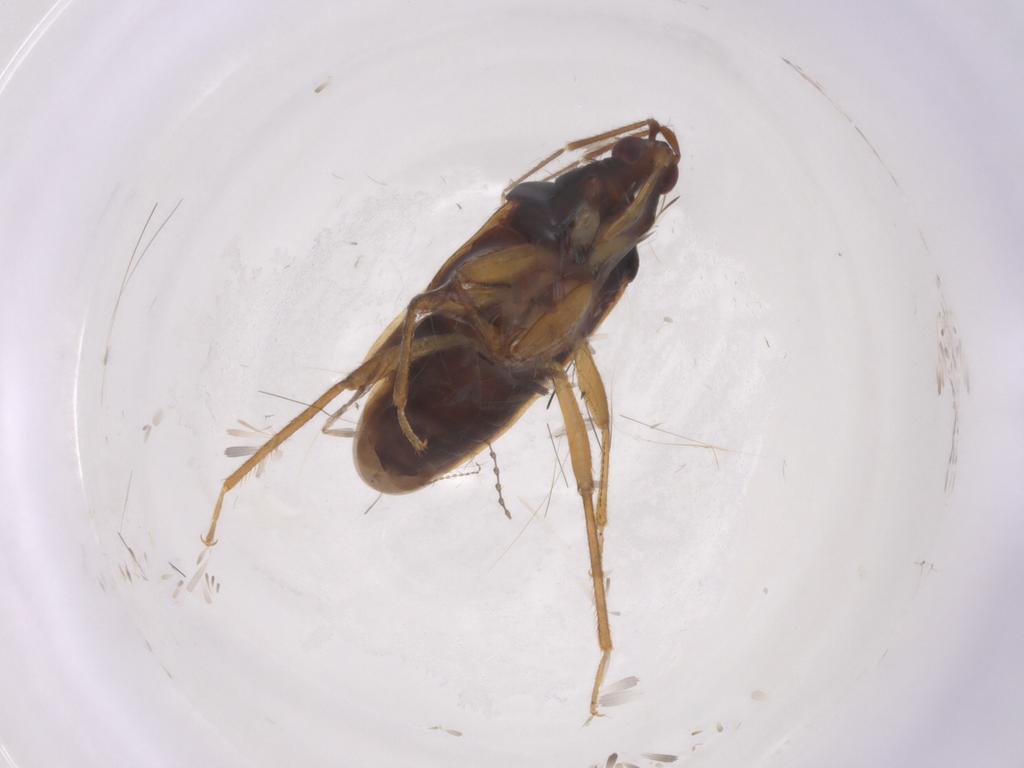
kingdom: Animalia
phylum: Arthropoda
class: Insecta
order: Hemiptera
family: Nabidae
